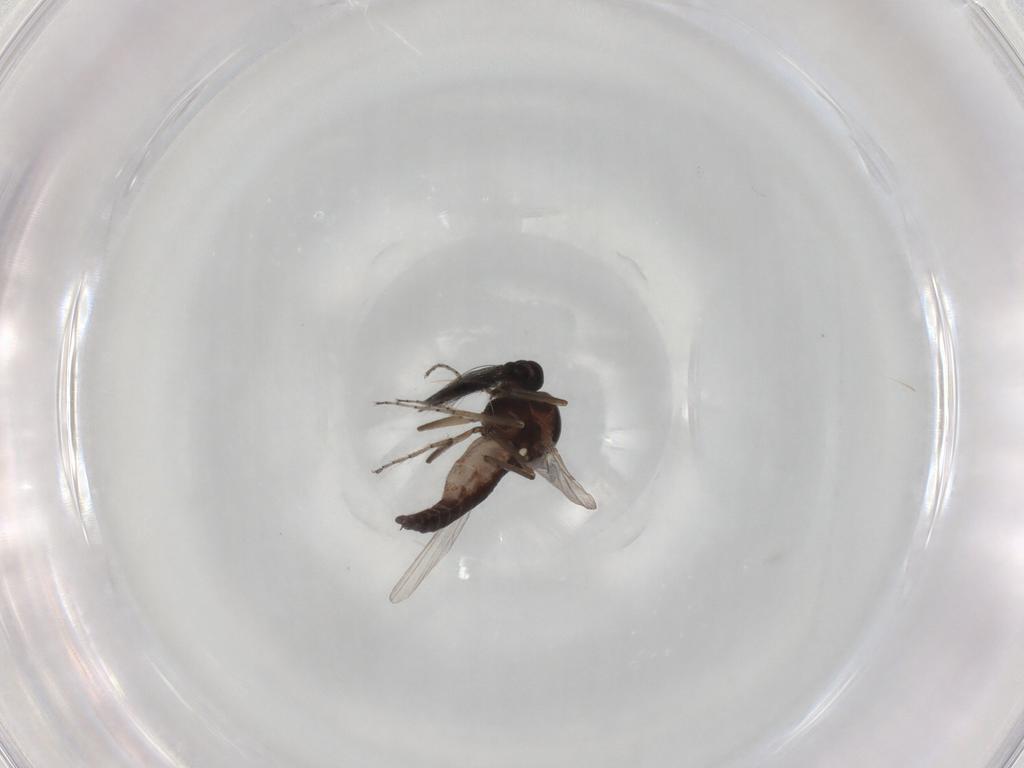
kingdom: Animalia
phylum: Arthropoda
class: Insecta
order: Diptera
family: Ceratopogonidae
